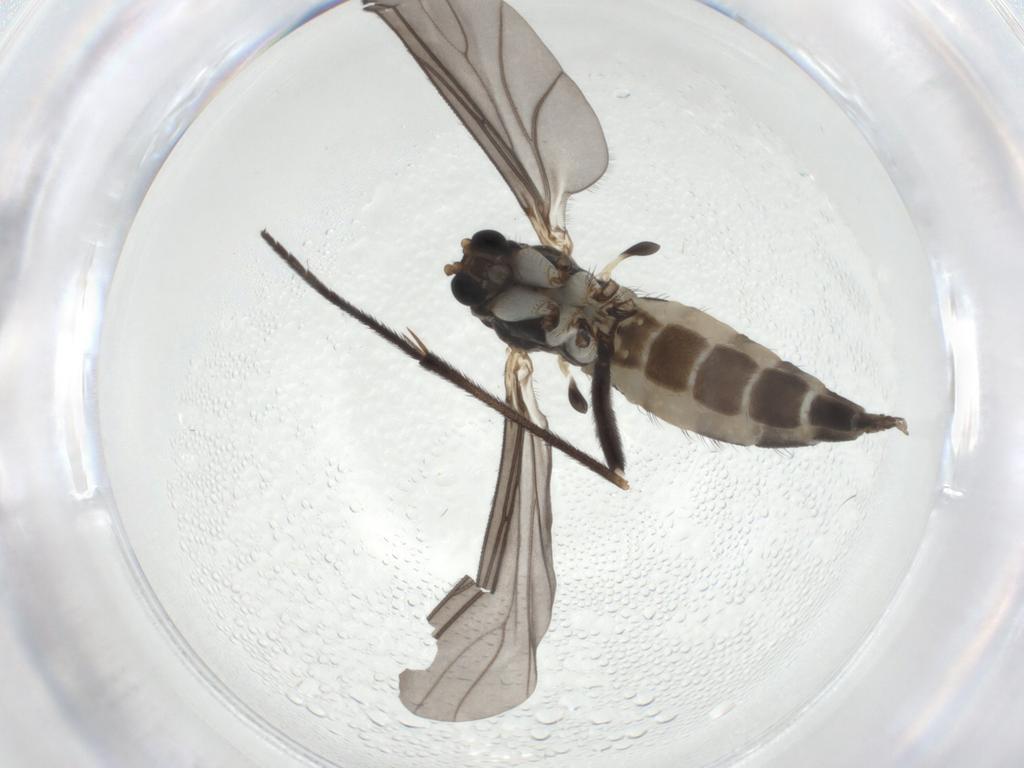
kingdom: Animalia
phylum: Arthropoda
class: Insecta
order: Diptera
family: Sciaridae
